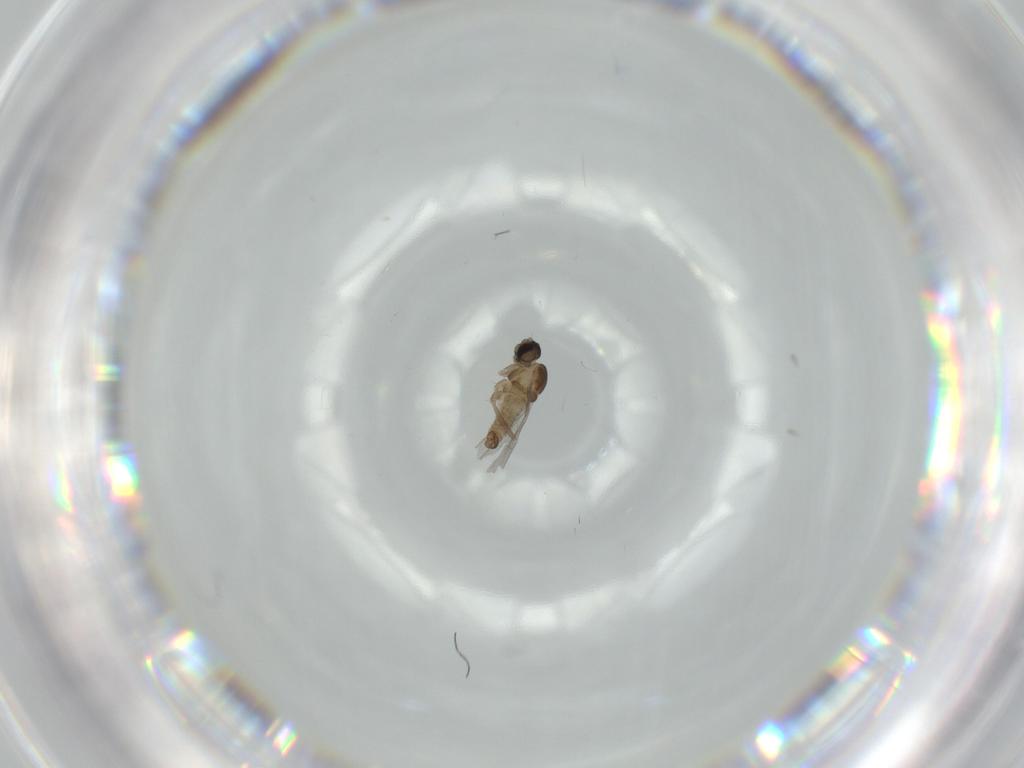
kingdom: Animalia
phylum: Arthropoda
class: Insecta
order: Diptera
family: Cecidomyiidae
